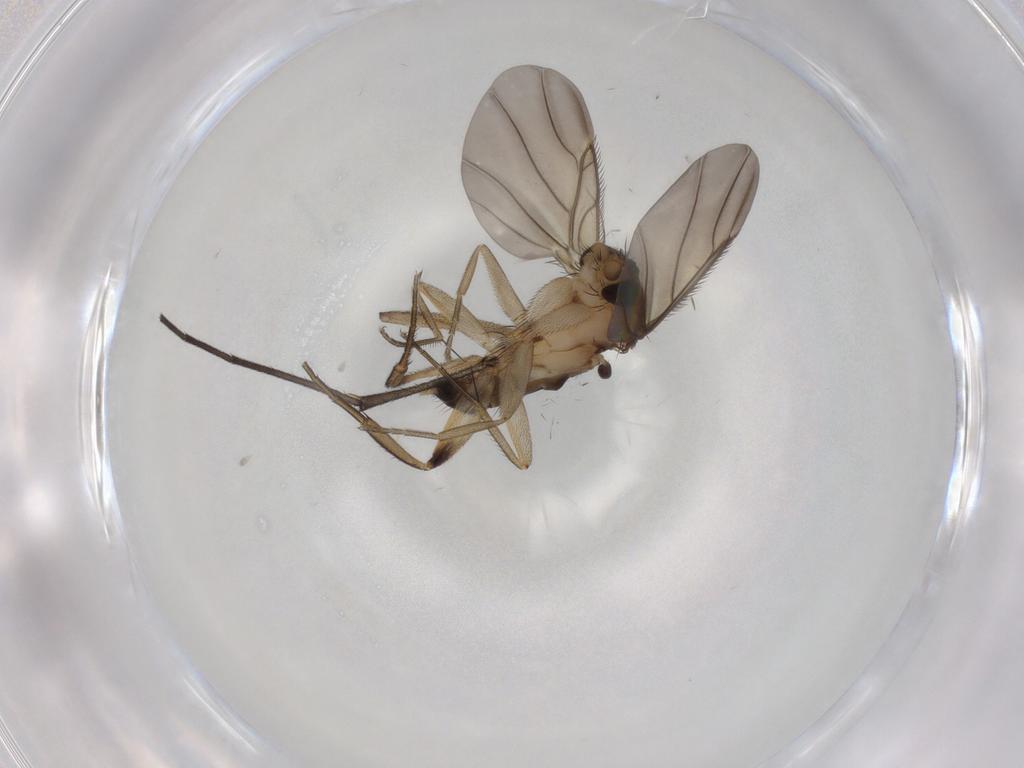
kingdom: Animalia
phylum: Arthropoda
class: Insecta
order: Diptera
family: Phoridae
